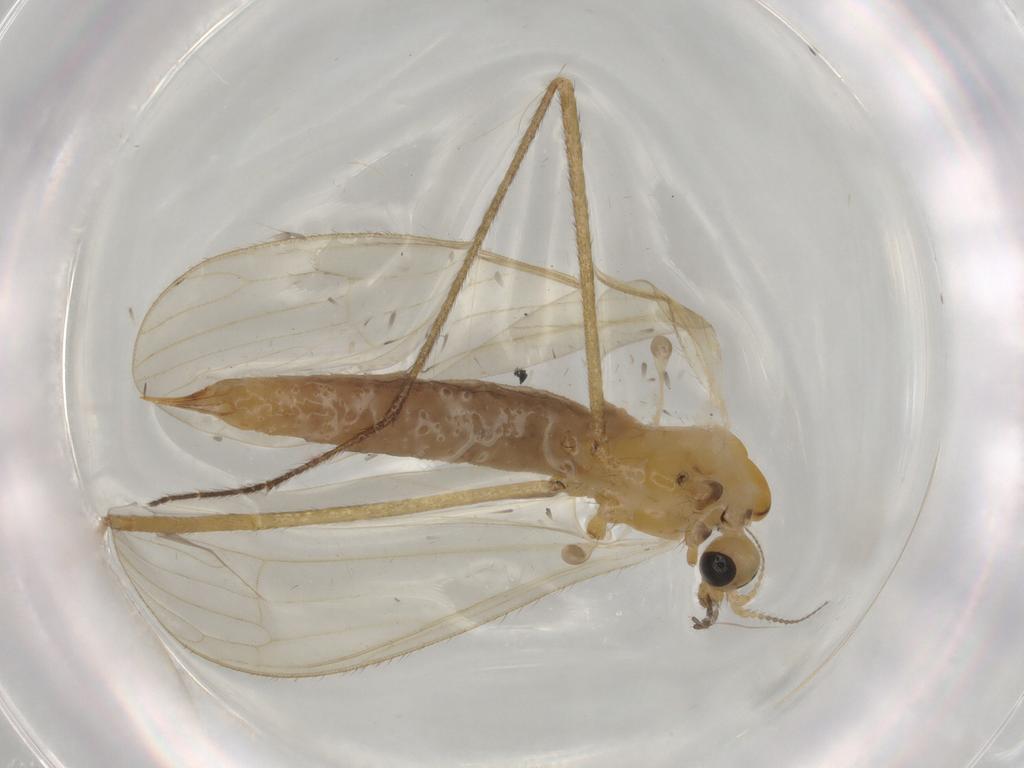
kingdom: Animalia
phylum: Arthropoda
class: Insecta
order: Diptera
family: Limoniidae
